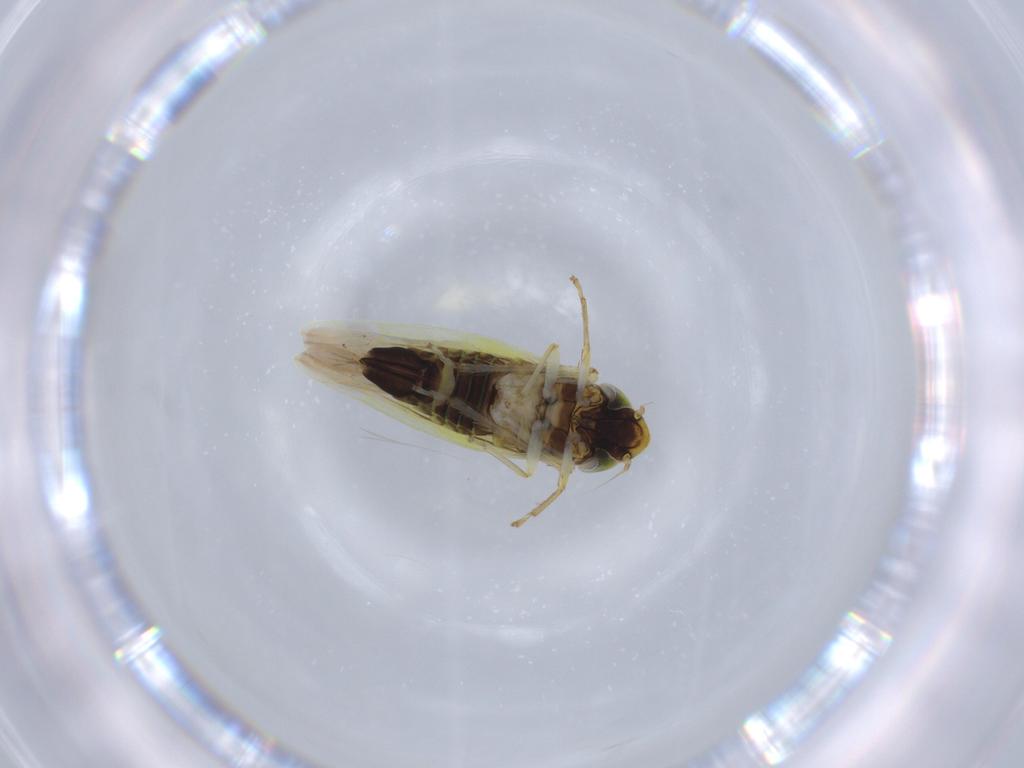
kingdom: Animalia
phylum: Arthropoda
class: Insecta
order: Hemiptera
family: Cicadellidae
